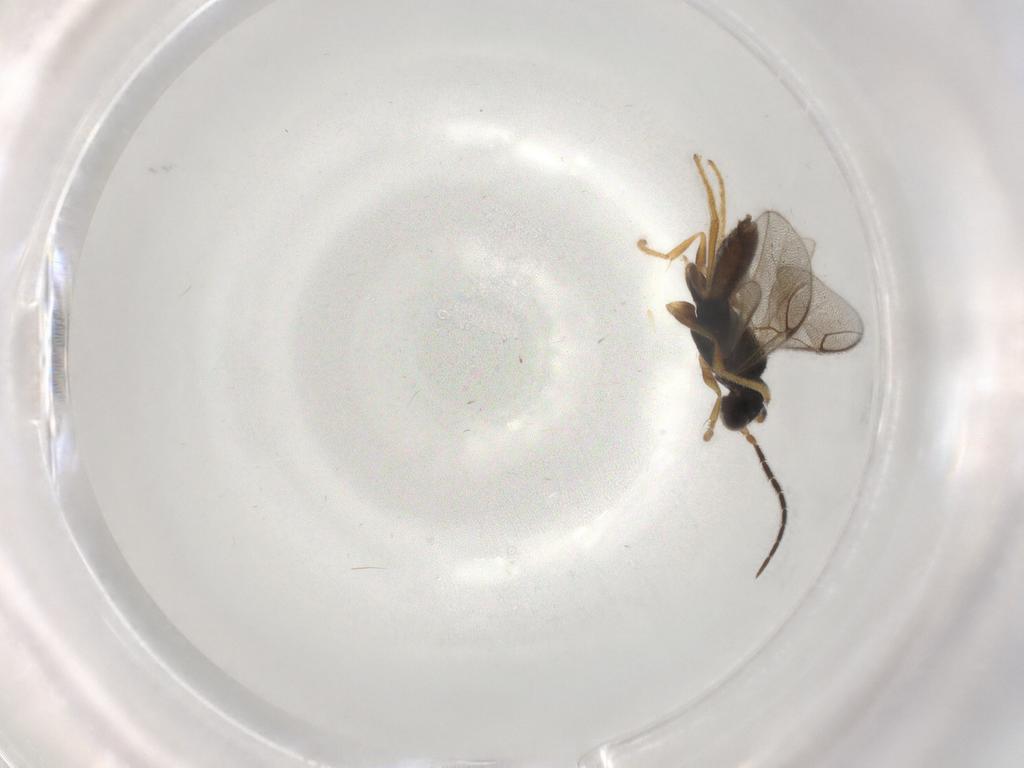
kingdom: Animalia
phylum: Arthropoda
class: Insecta
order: Hymenoptera
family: Dryinidae
